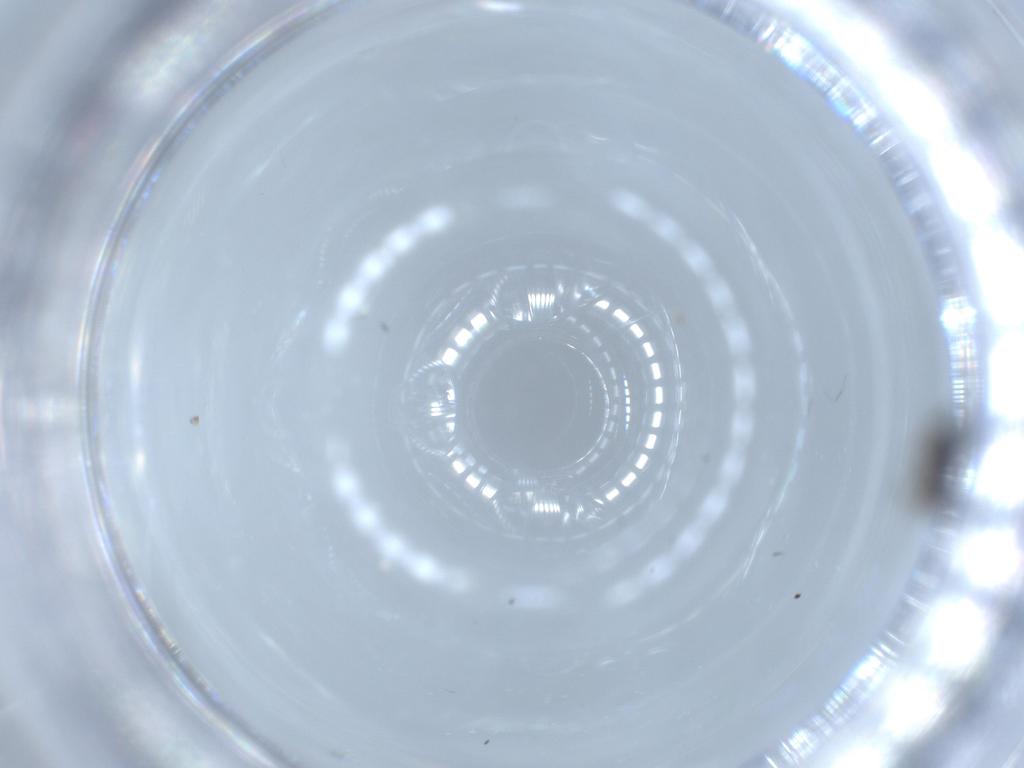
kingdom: Animalia
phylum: Arthropoda
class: Insecta
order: Thysanoptera
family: Thripidae
